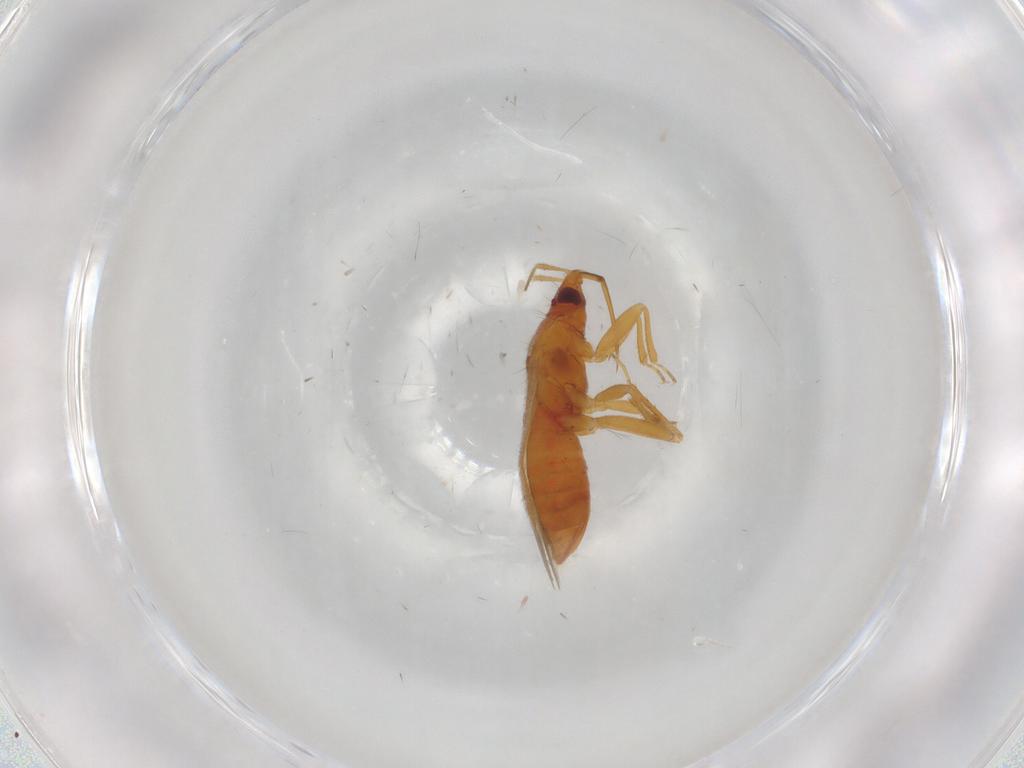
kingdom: Animalia
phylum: Arthropoda
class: Insecta
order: Hemiptera
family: Anthocoridae
